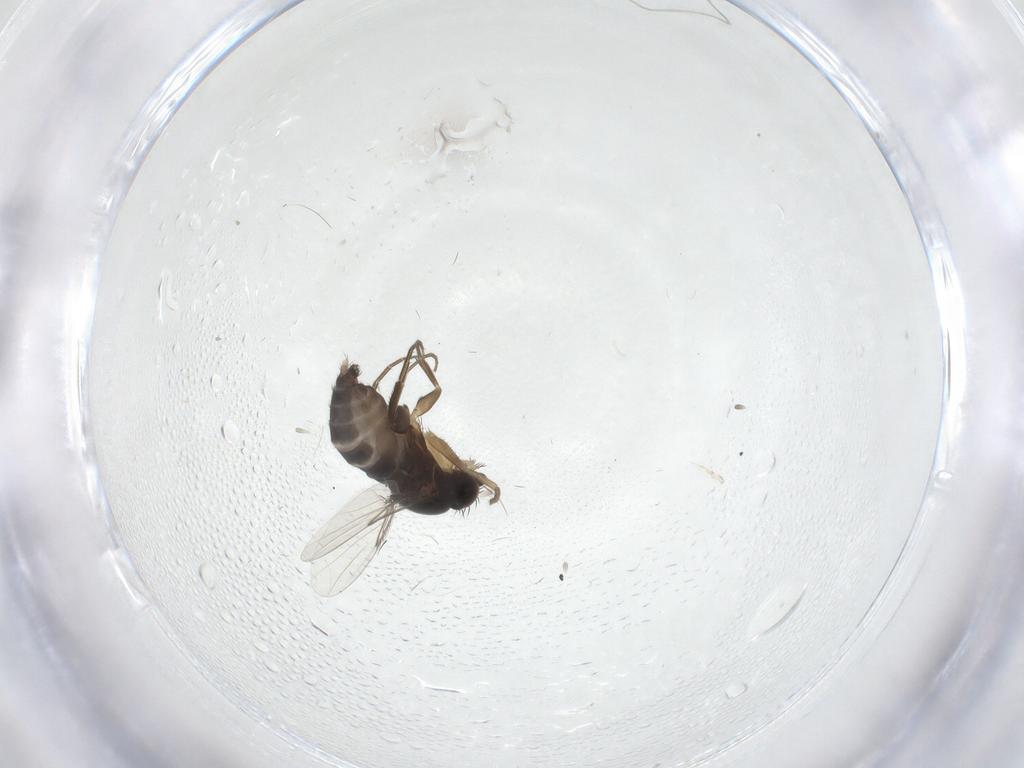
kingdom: Animalia
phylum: Arthropoda
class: Insecta
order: Diptera
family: Phoridae
